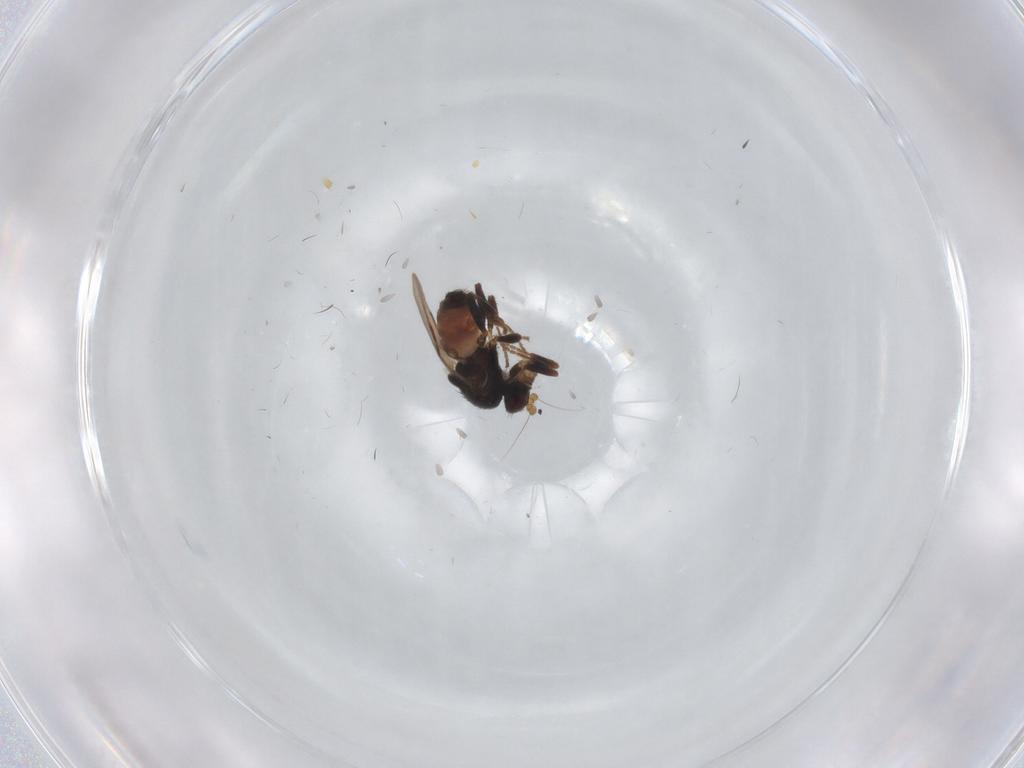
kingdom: Animalia
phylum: Arthropoda
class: Insecta
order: Diptera
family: Sphaeroceridae
